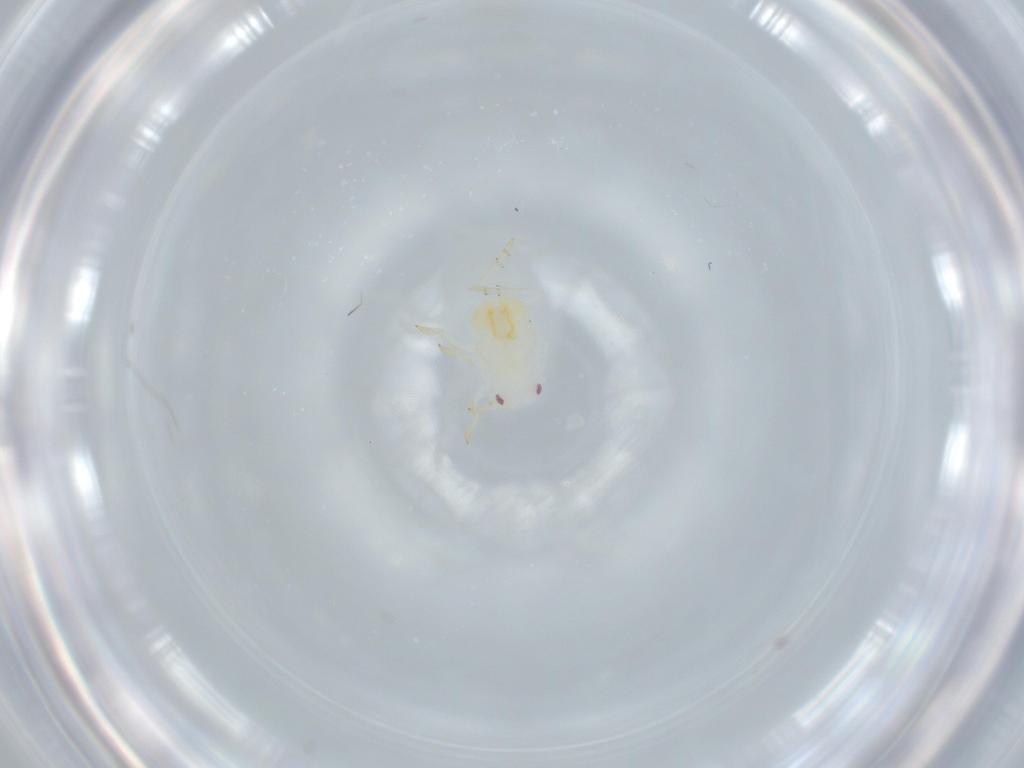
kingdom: Animalia
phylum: Arthropoda
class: Insecta
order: Hemiptera
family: Flatidae
